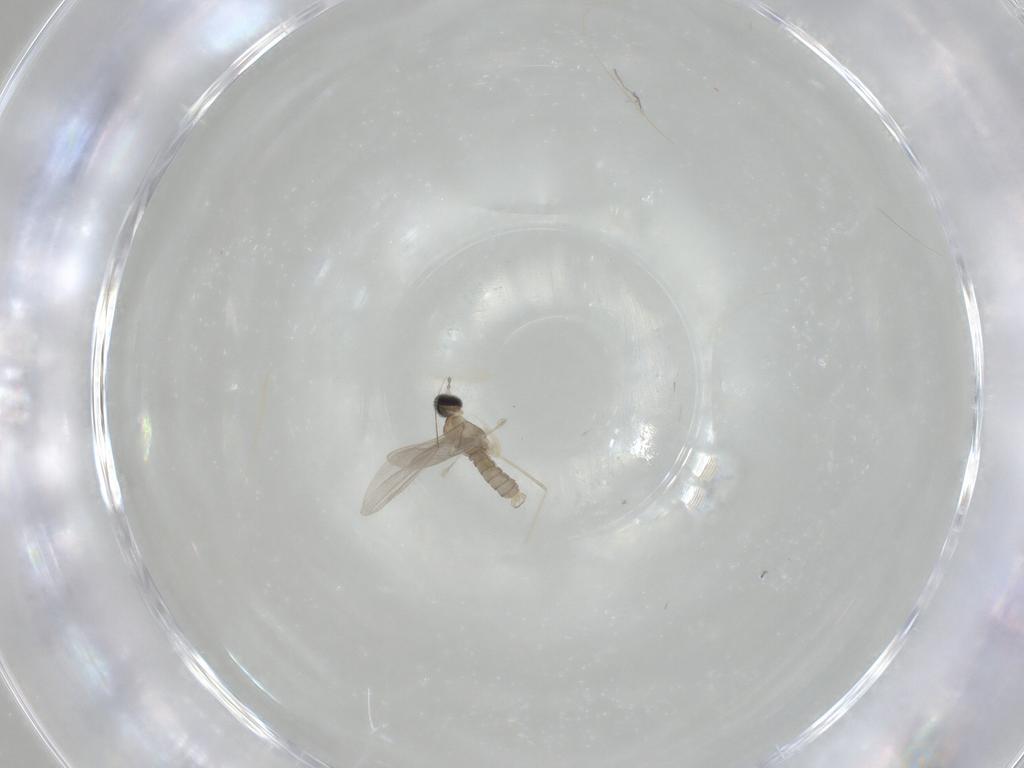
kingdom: Animalia
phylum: Arthropoda
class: Insecta
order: Diptera
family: Cecidomyiidae
